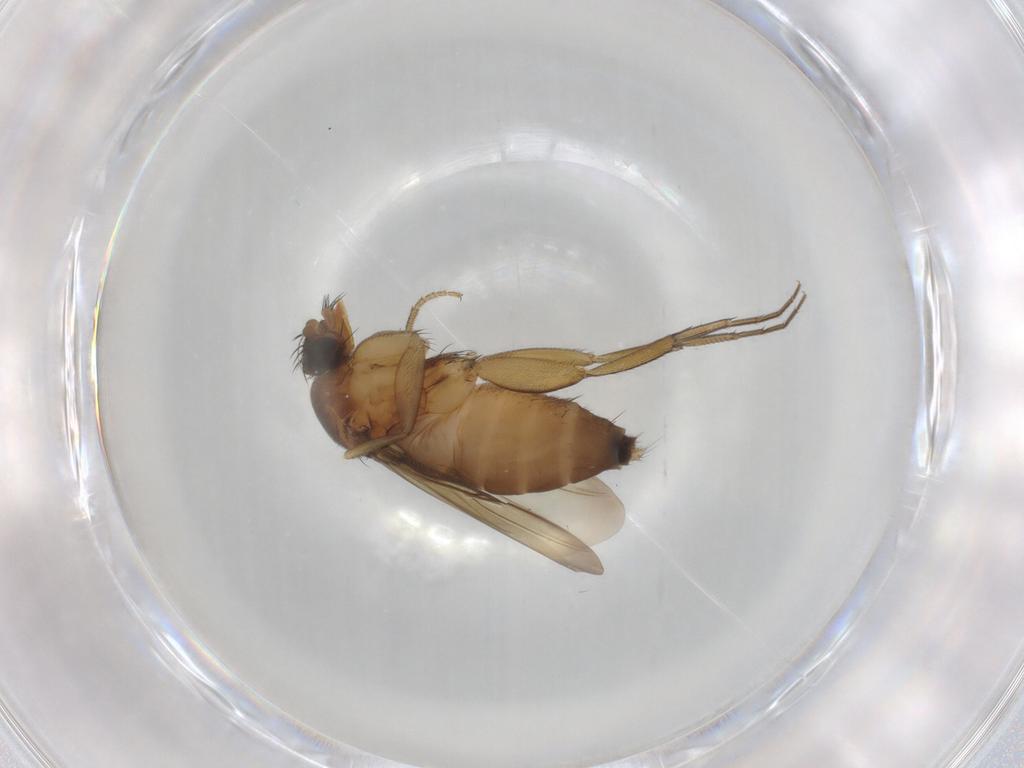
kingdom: Animalia
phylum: Arthropoda
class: Insecta
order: Diptera
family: Phoridae
